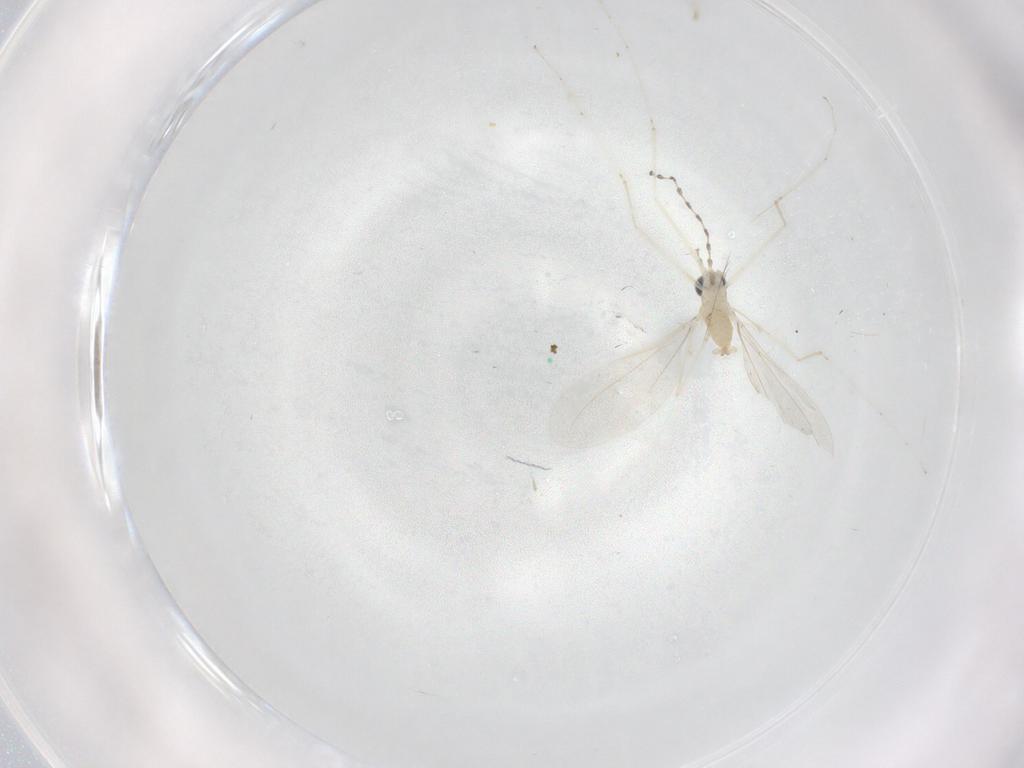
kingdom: Animalia
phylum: Arthropoda
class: Insecta
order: Diptera
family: Cecidomyiidae
